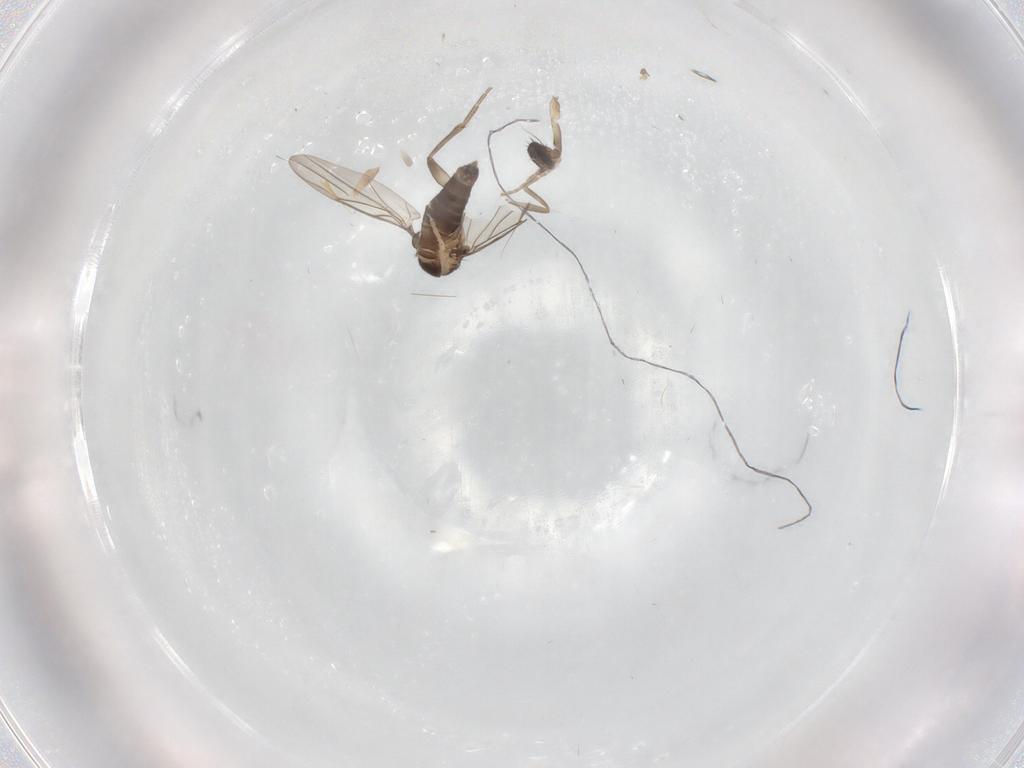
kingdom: Animalia
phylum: Arthropoda
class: Insecta
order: Diptera
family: Phoridae
